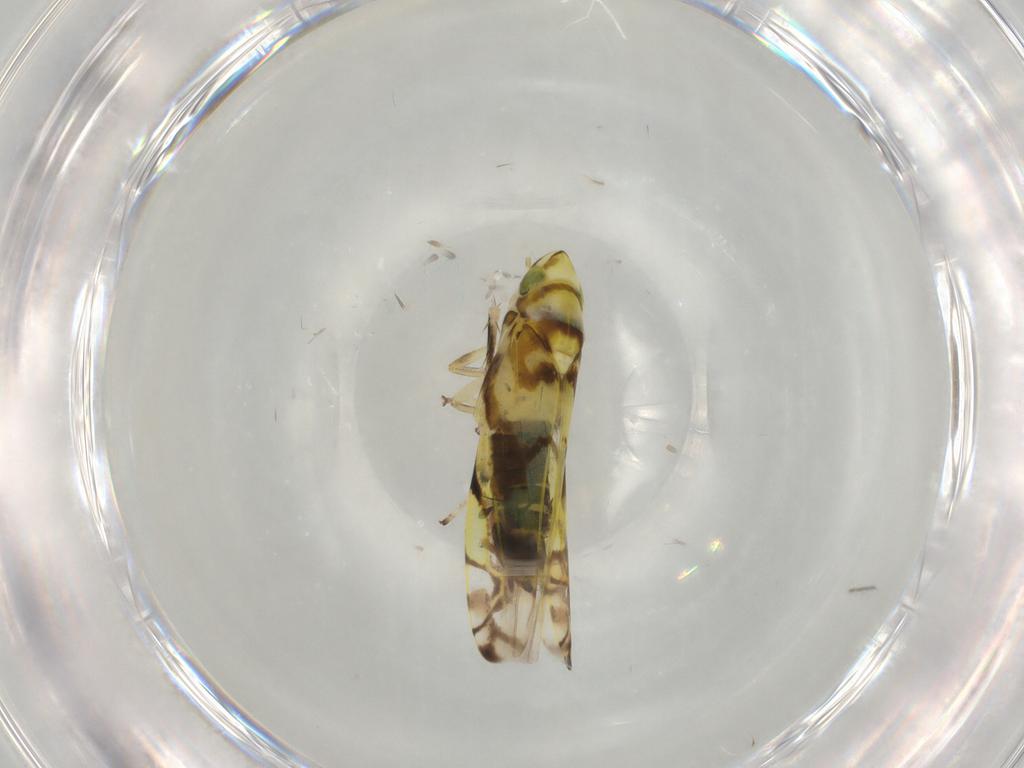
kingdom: Animalia
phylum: Arthropoda
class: Insecta
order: Hemiptera
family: Cicadellidae
